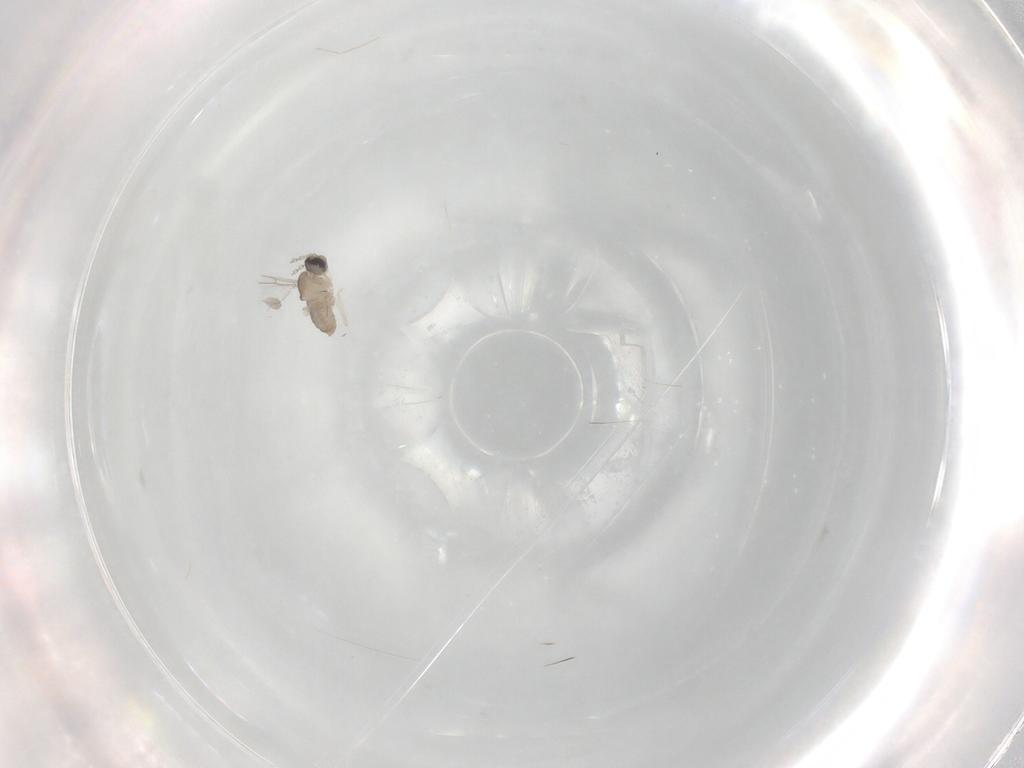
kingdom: Animalia
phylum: Arthropoda
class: Insecta
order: Diptera
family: Cecidomyiidae
